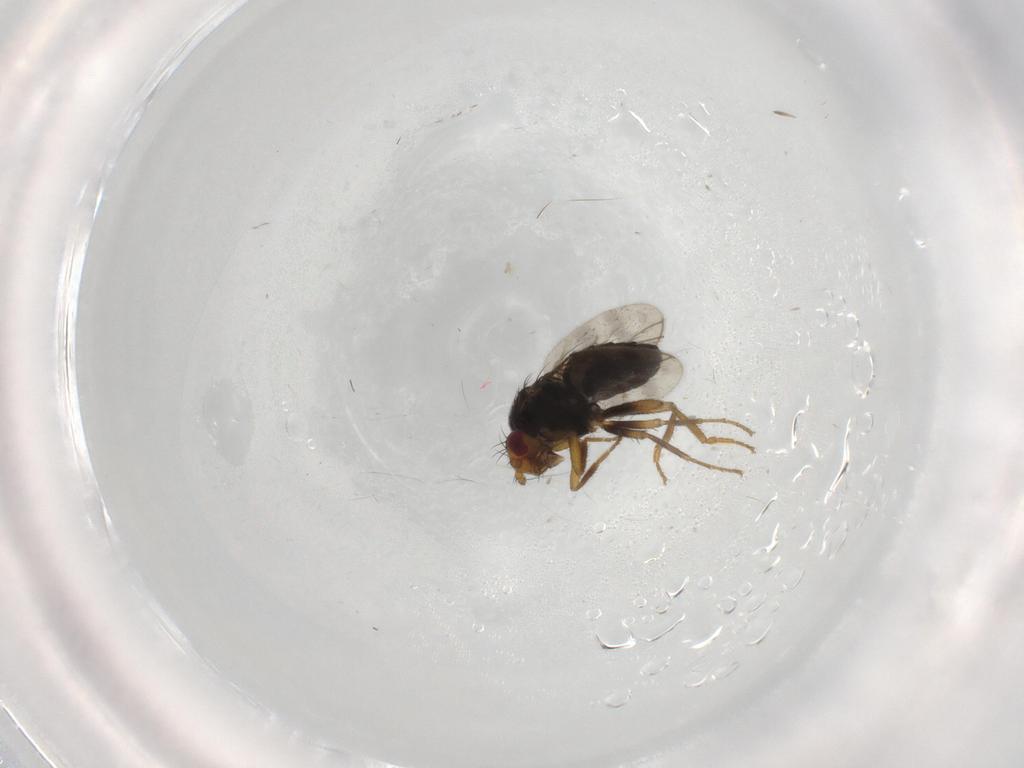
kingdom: Animalia
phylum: Arthropoda
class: Insecta
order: Diptera
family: Sphaeroceridae
